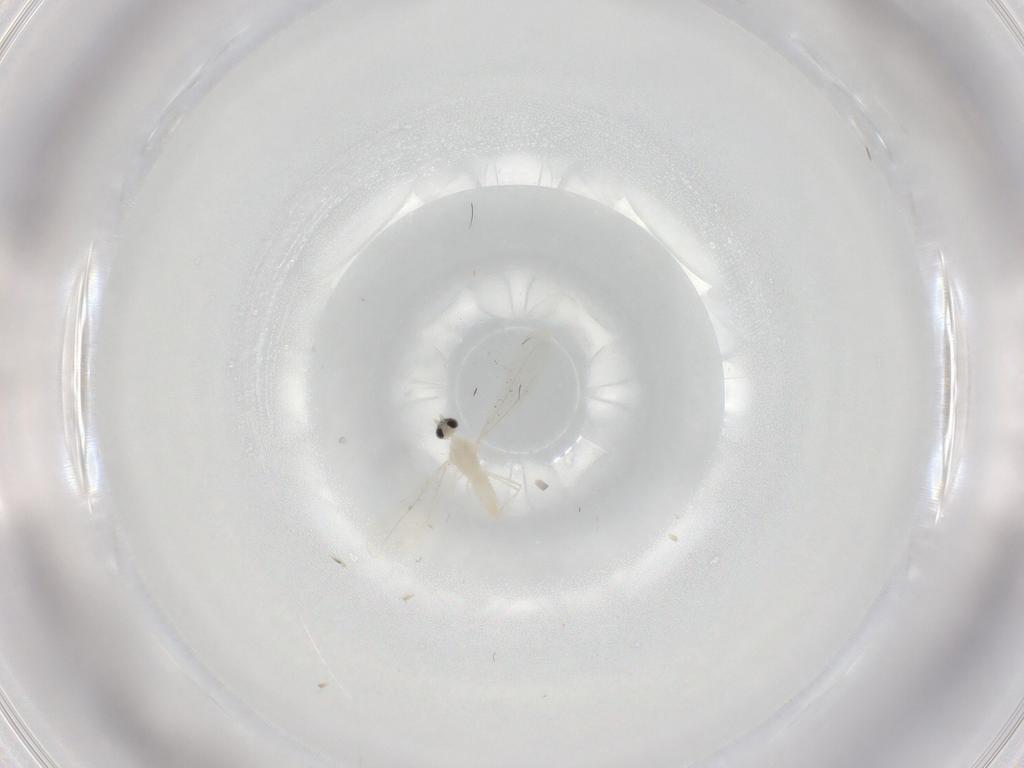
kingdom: Animalia
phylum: Arthropoda
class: Insecta
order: Diptera
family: Cecidomyiidae
